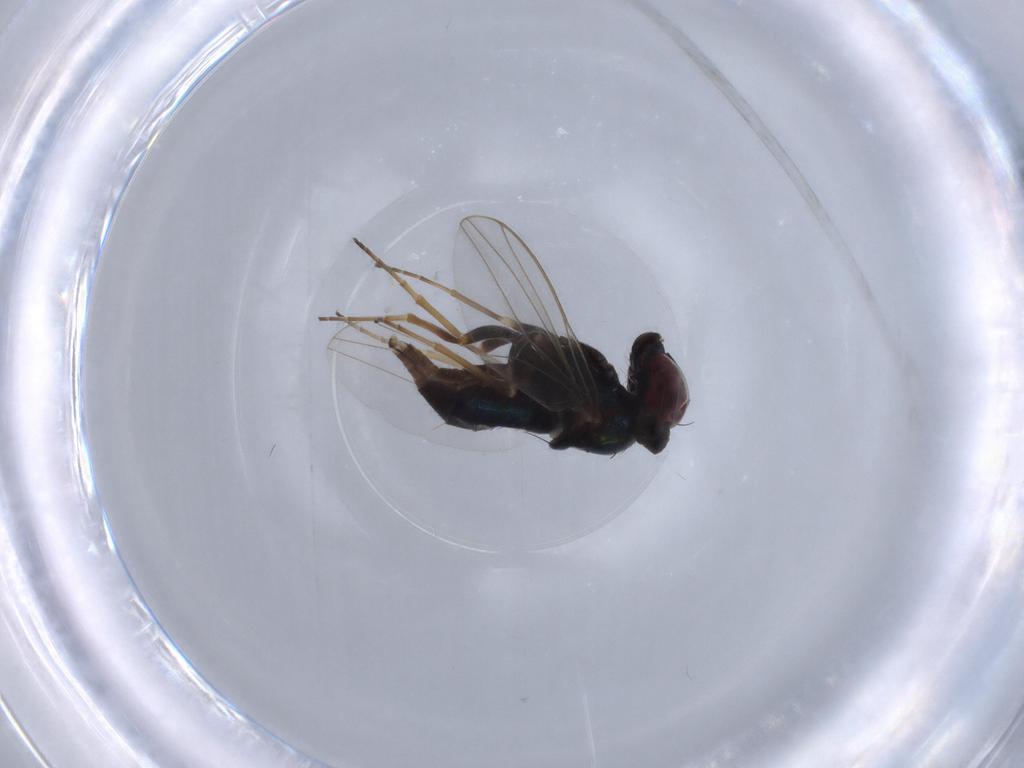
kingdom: Animalia
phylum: Arthropoda
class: Insecta
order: Diptera
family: Dolichopodidae
